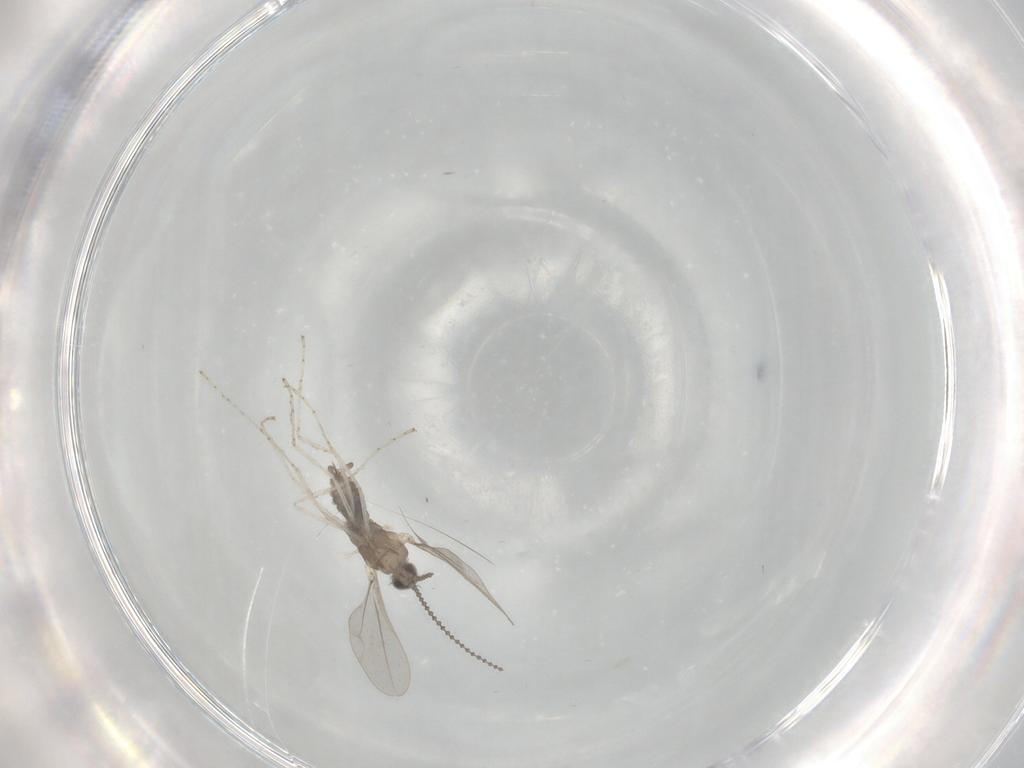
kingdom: Animalia
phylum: Arthropoda
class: Insecta
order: Diptera
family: Cecidomyiidae
